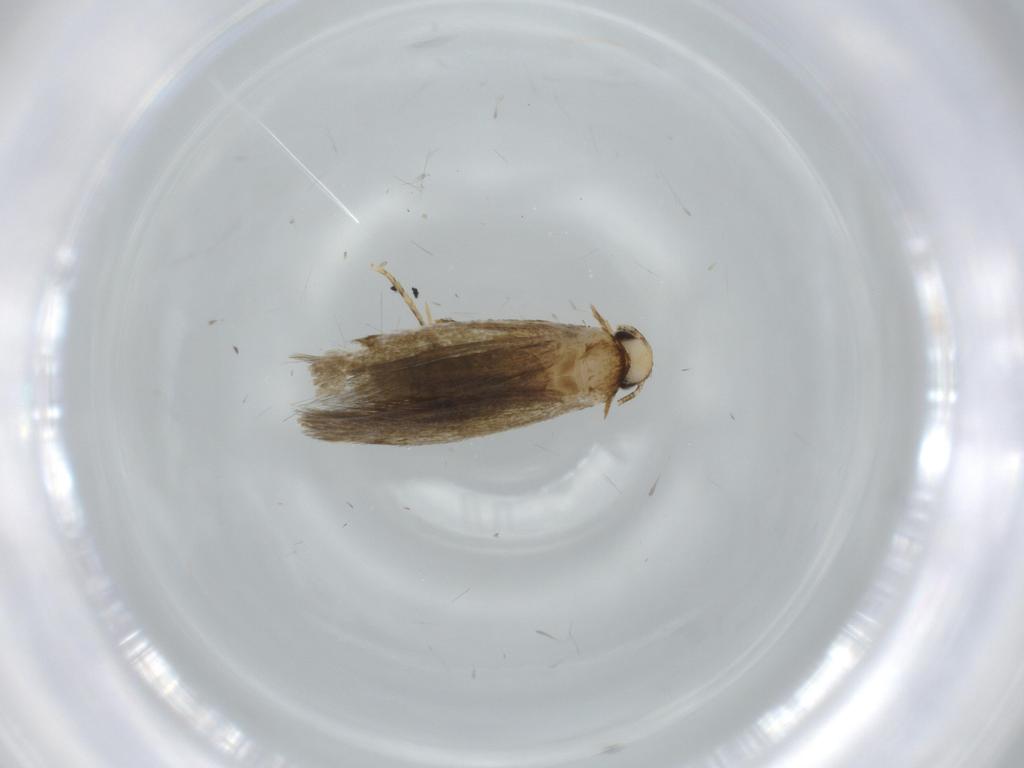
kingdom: Animalia
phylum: Arthropoda
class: Insecta
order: Lepidoptera
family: Tineidae
